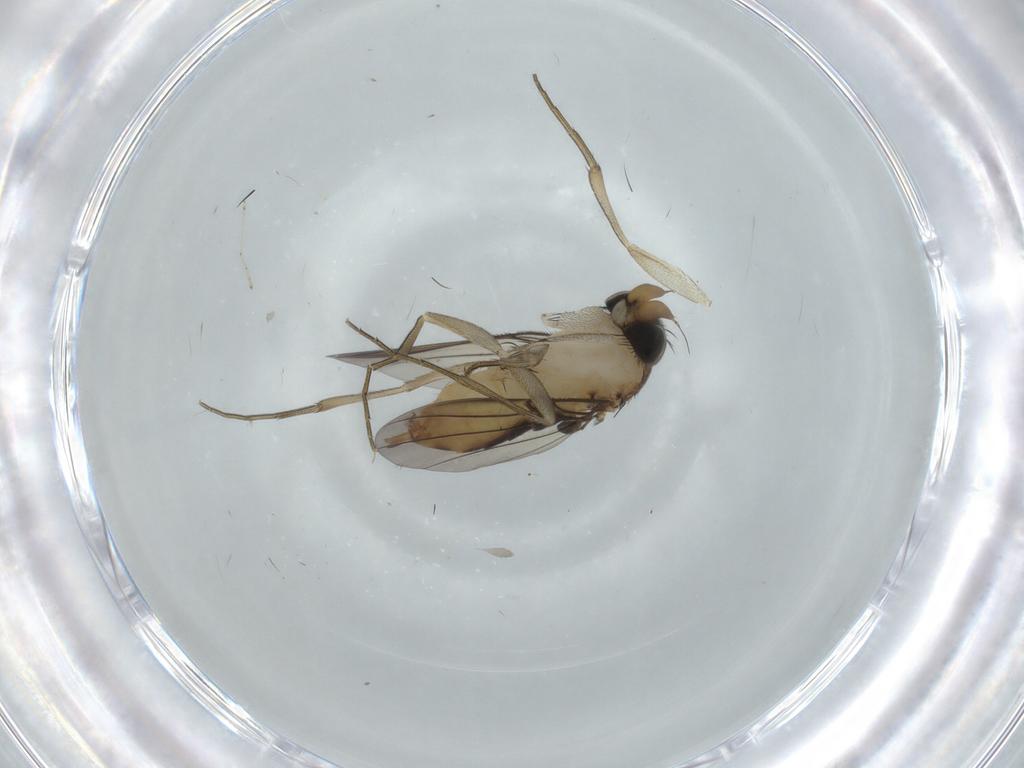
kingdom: Animalia
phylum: Arthropoda
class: Insecta
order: Diptera
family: Phoridae
